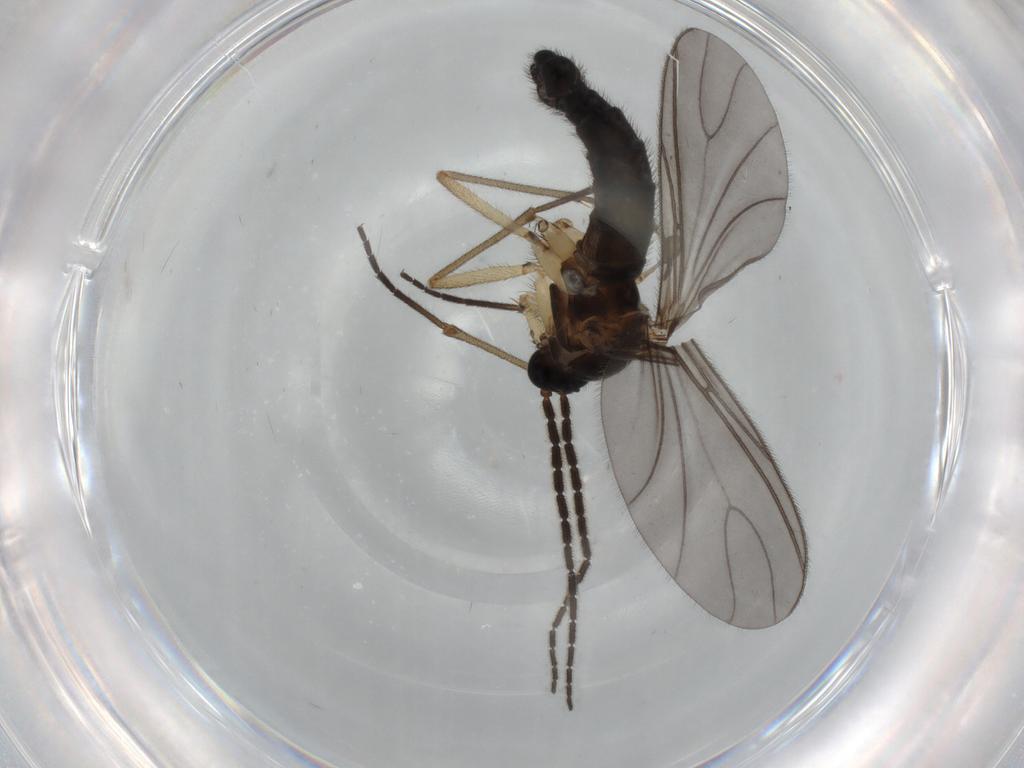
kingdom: Animalia
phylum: Arthropoda
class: Insecta
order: Diptera
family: Sciaridae
